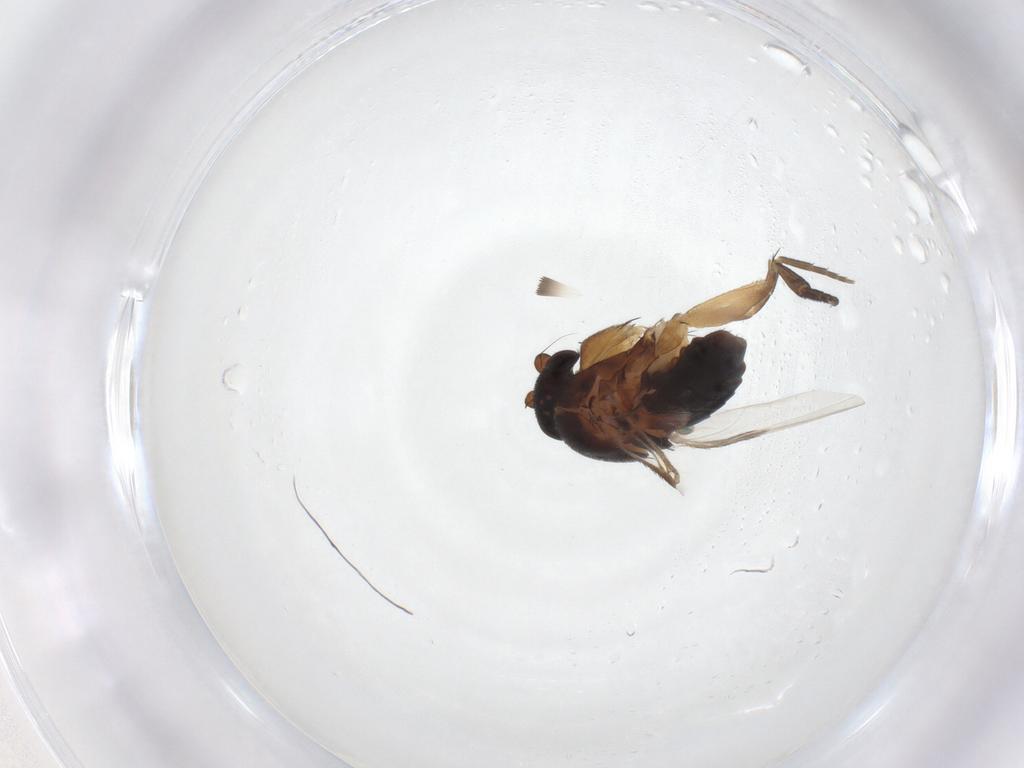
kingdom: Animalia
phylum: Arthropoda
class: Insecta
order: Diptera
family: Phoridae
